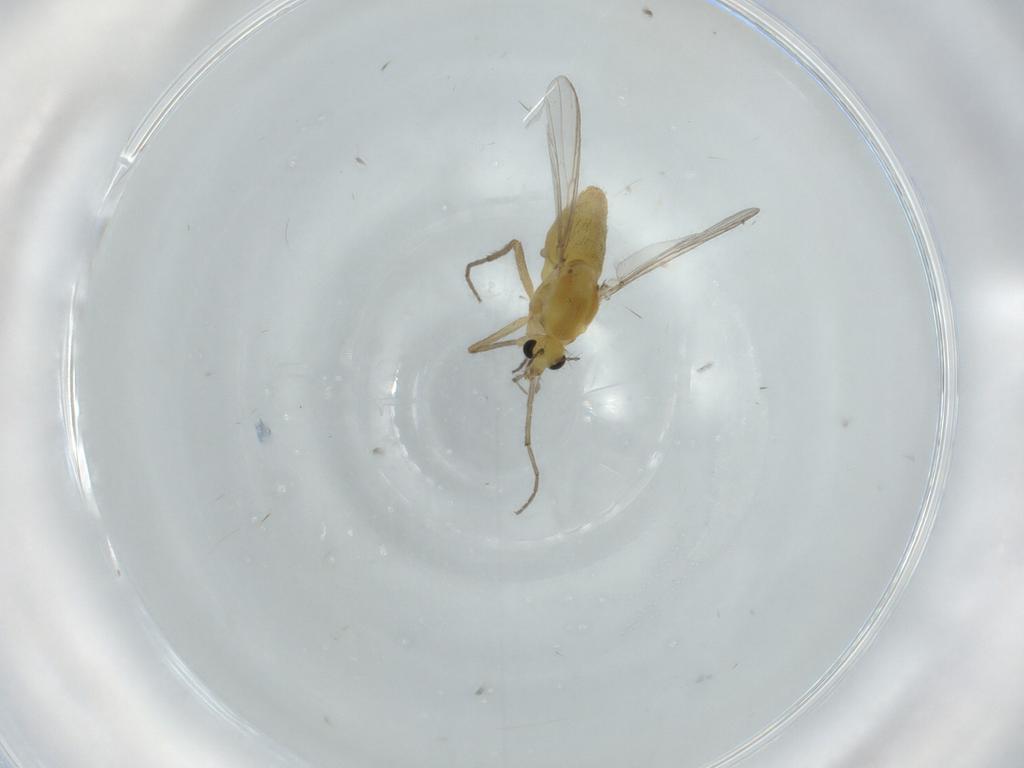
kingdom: Animalia
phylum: Arthropoda
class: Insecta
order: Diptera
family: Chironomidae
